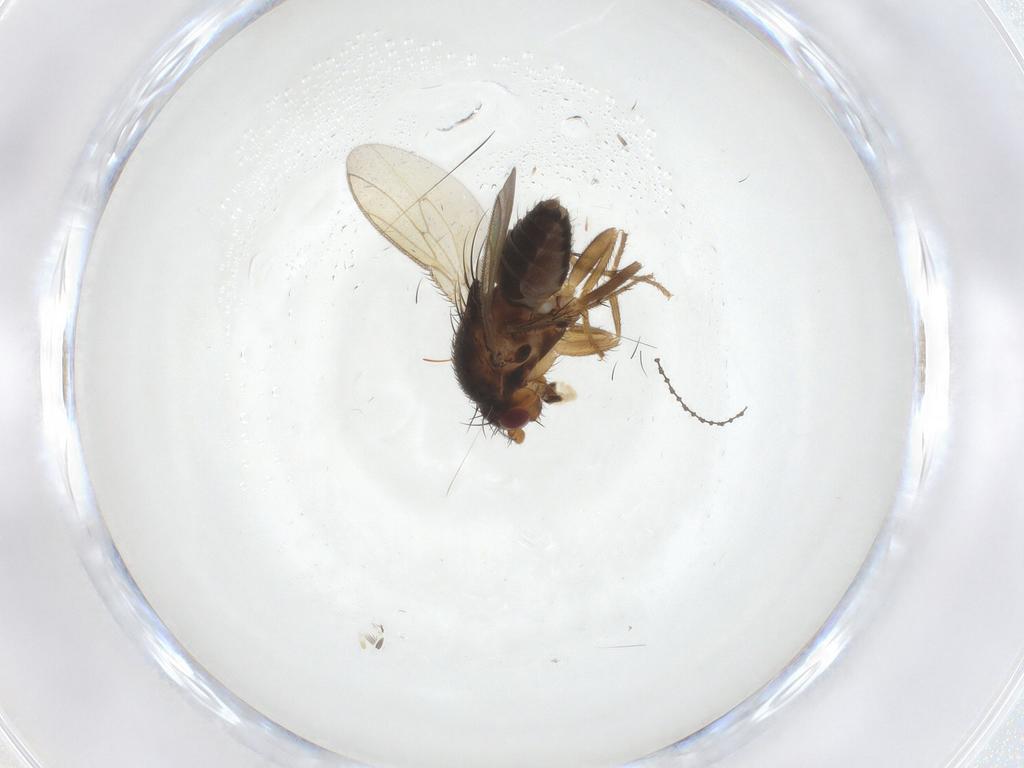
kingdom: Animalia
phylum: Arthropoda
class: Insecta
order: Diptera
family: Sphaeroceridae
